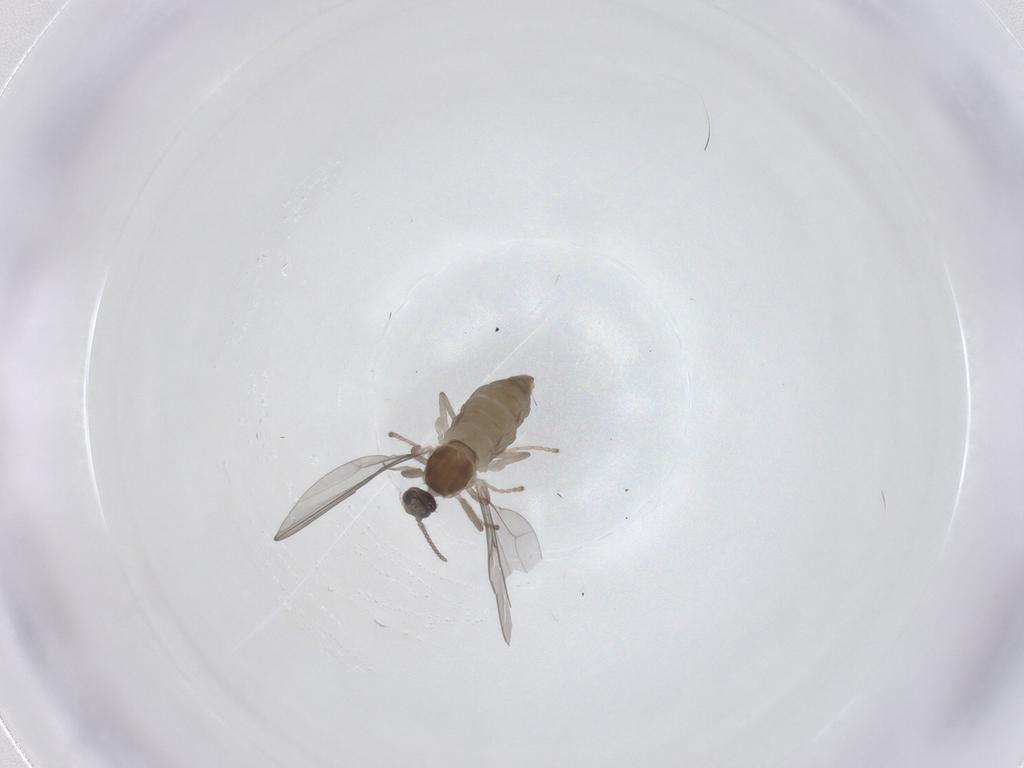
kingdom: Animalia
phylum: Arthropoda
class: Insecta
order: Diptera
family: Cecidomyiidae
